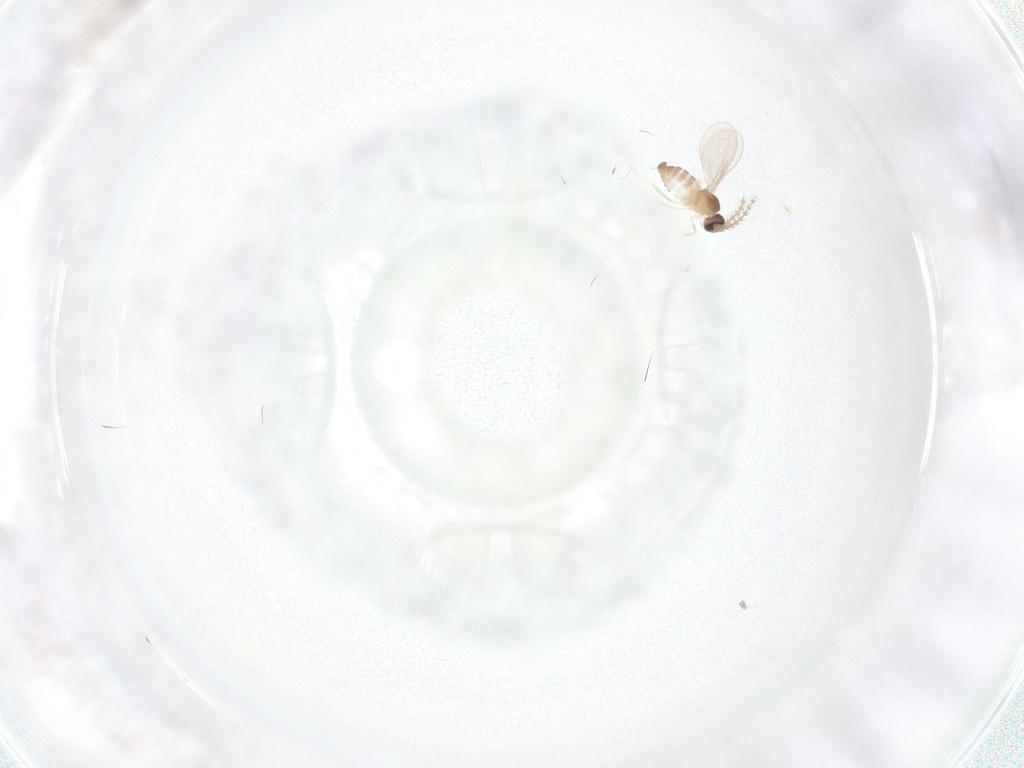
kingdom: Animalia
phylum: Arthropoda
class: Insecta
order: Diptera
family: Cecidomyiidae
